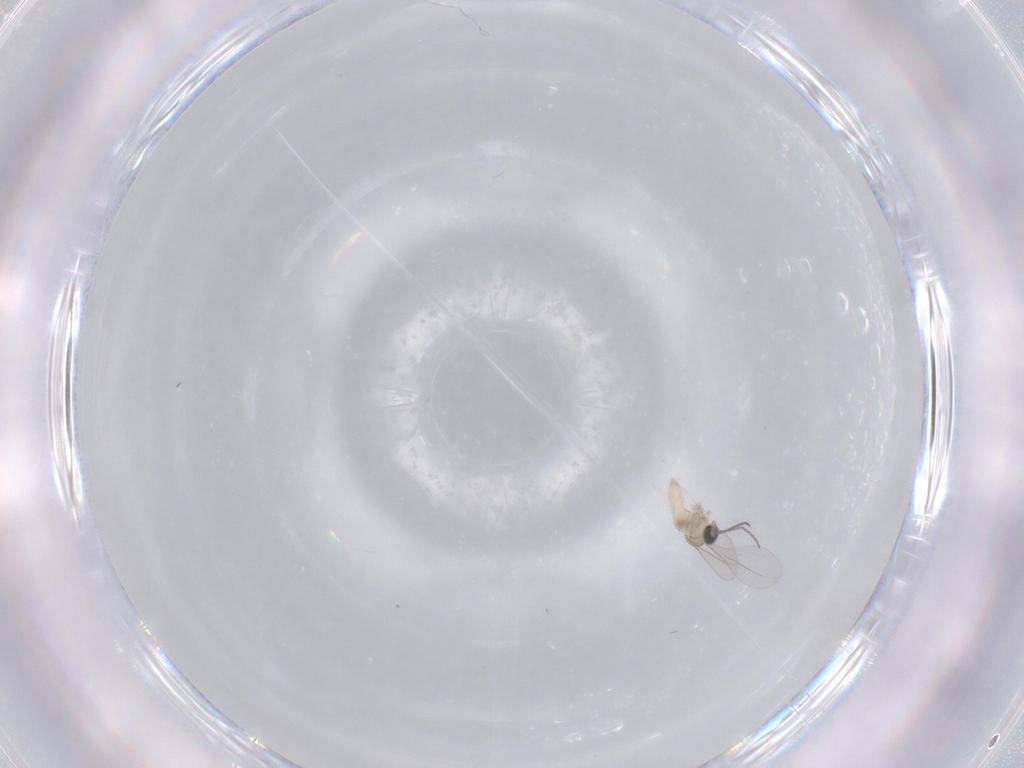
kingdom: Animalia
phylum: Arthropoda
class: Insecta
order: Diptera
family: Chironomidae
